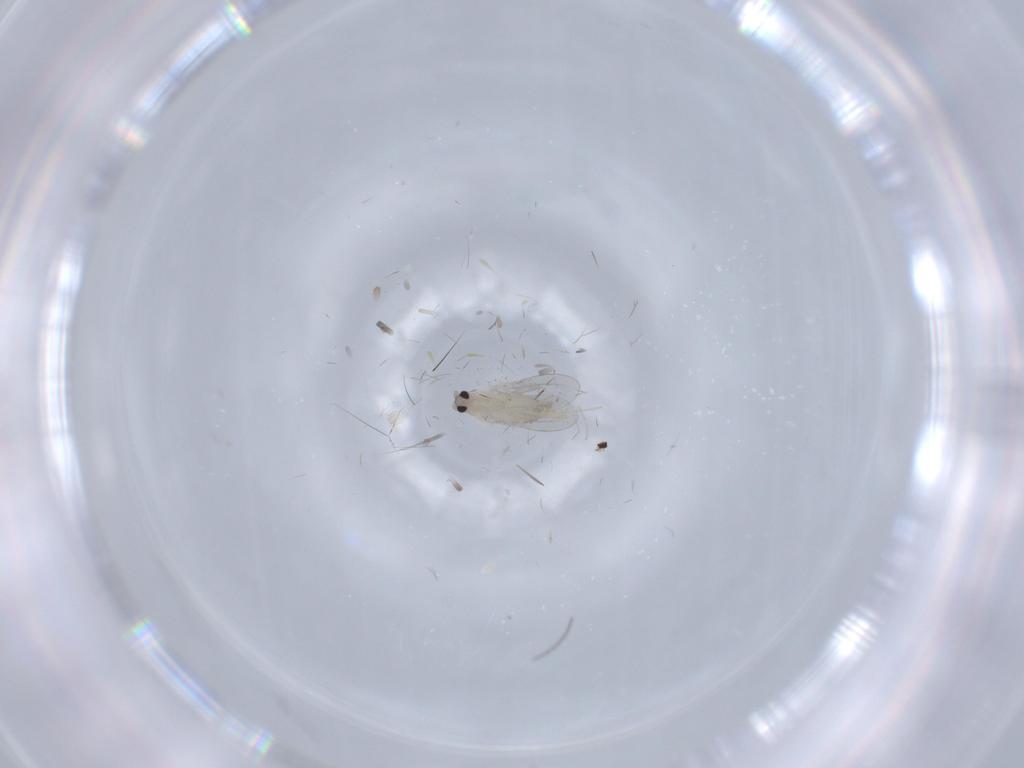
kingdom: Animalia
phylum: Arthropoda
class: Insecta
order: Diptera
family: Cecidomyiidae
